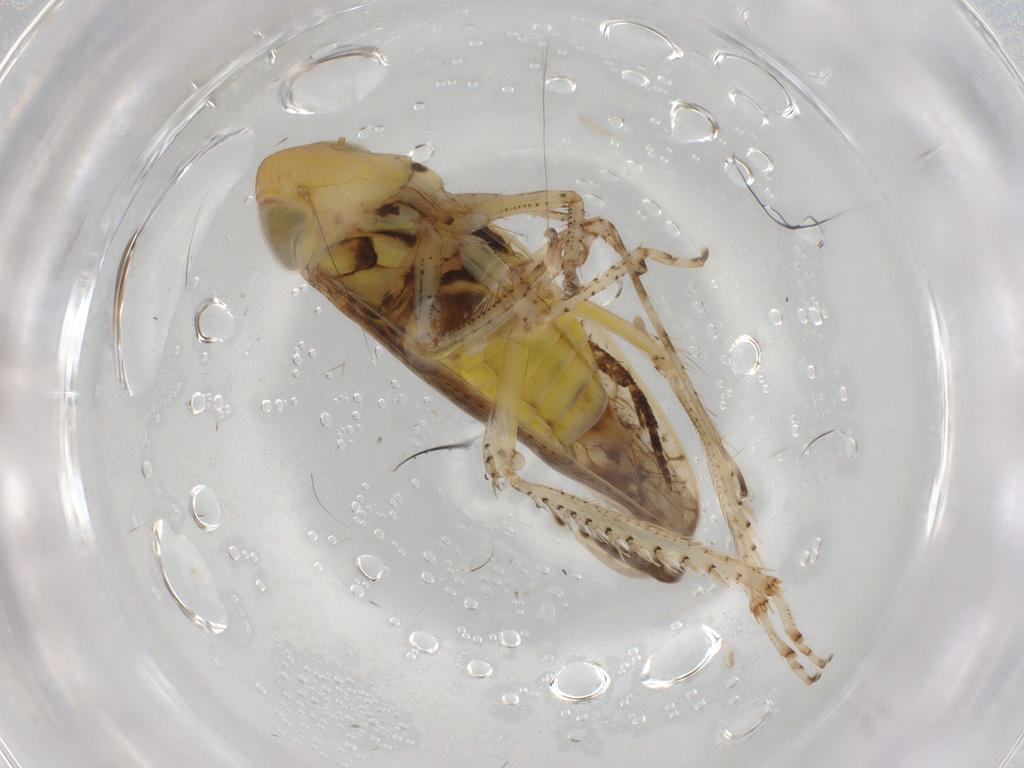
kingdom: Animalia
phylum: Arthropoda
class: Insecta
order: Hemiptera
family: Cicadellidae
